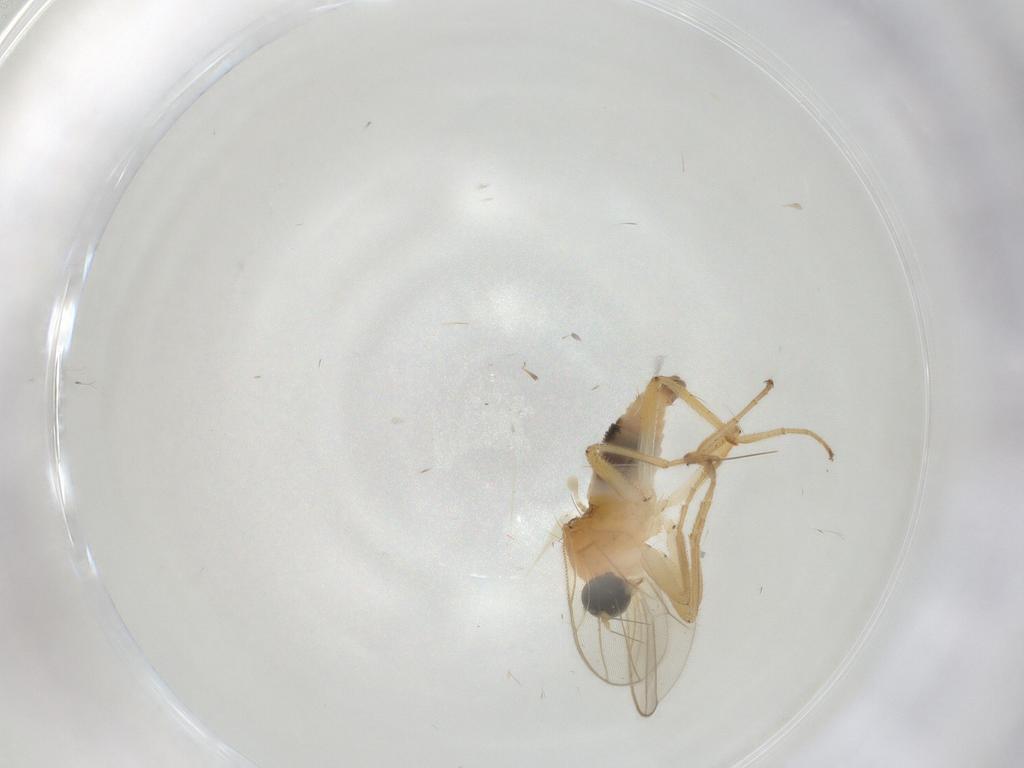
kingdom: Animalia
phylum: Arthropoda
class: Insecta
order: Diptera
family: Hybotidae
